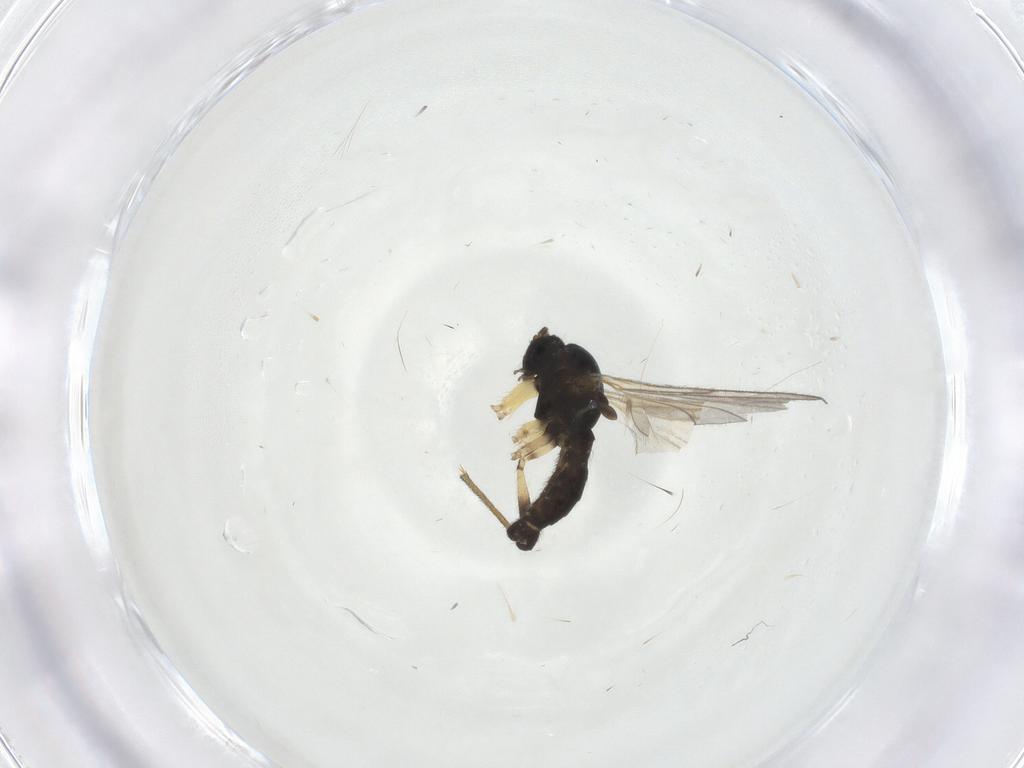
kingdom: Animalia
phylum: Arthropoda
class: Insecta
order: Diptera
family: Sciaridae
